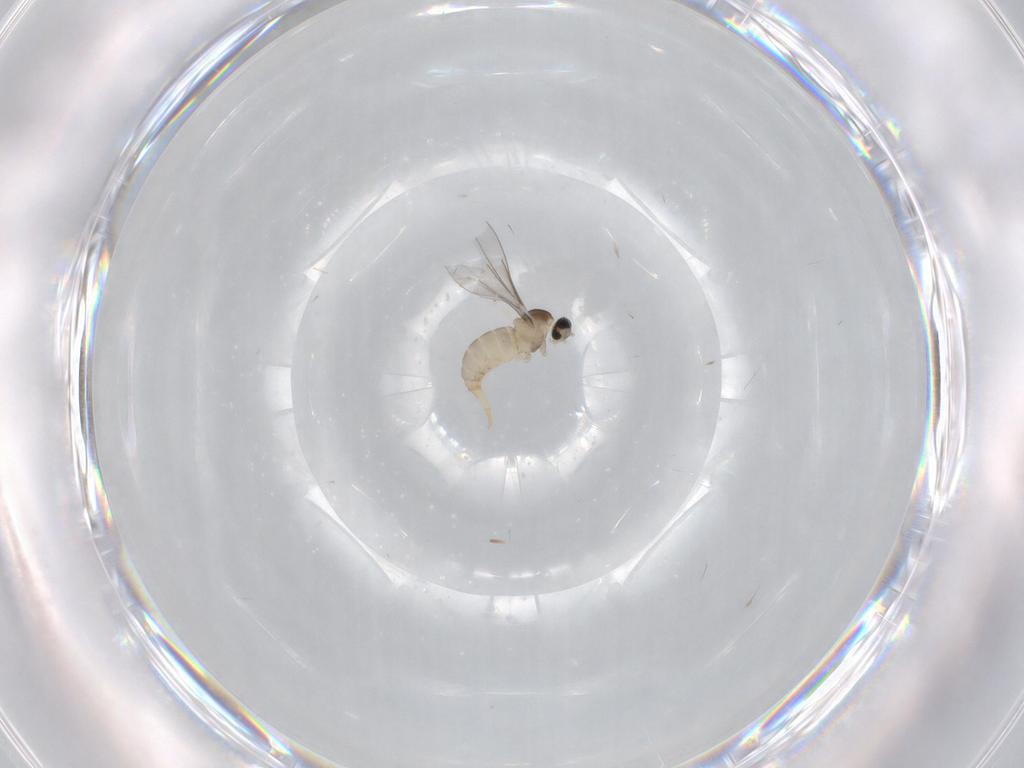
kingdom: Animalia
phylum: Arthropoda
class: Insecta
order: Diptera
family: Cecidomyiidae
